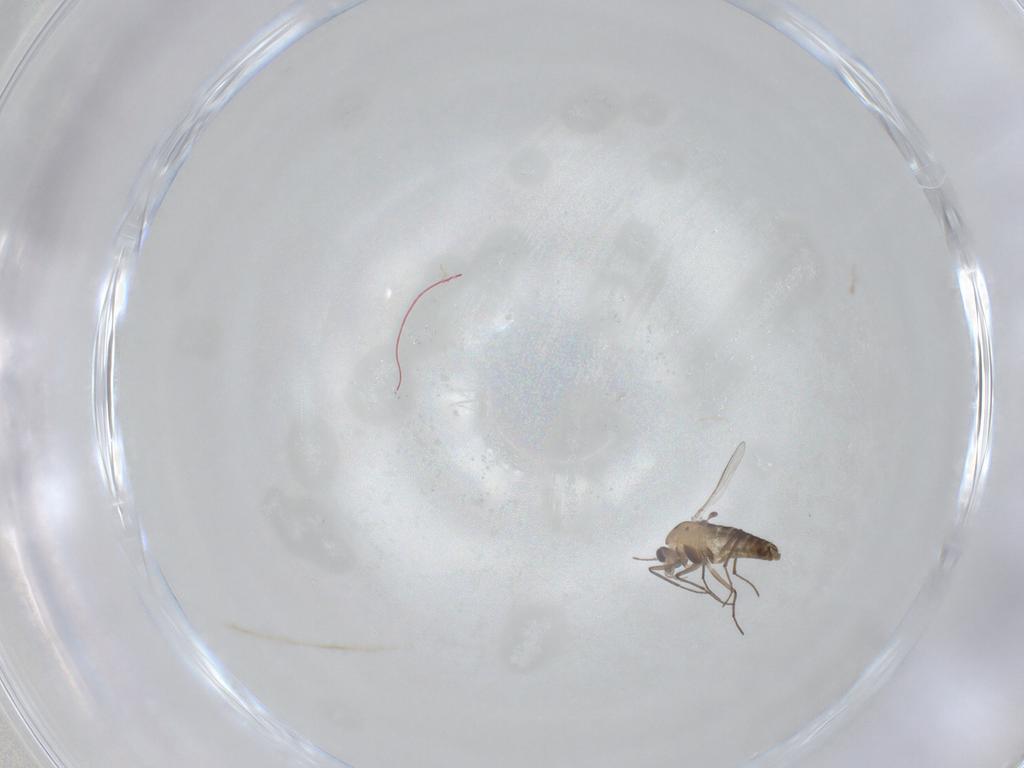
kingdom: Animalia
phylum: Arthropoda
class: Insecta
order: Diptera
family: Chironomidae
